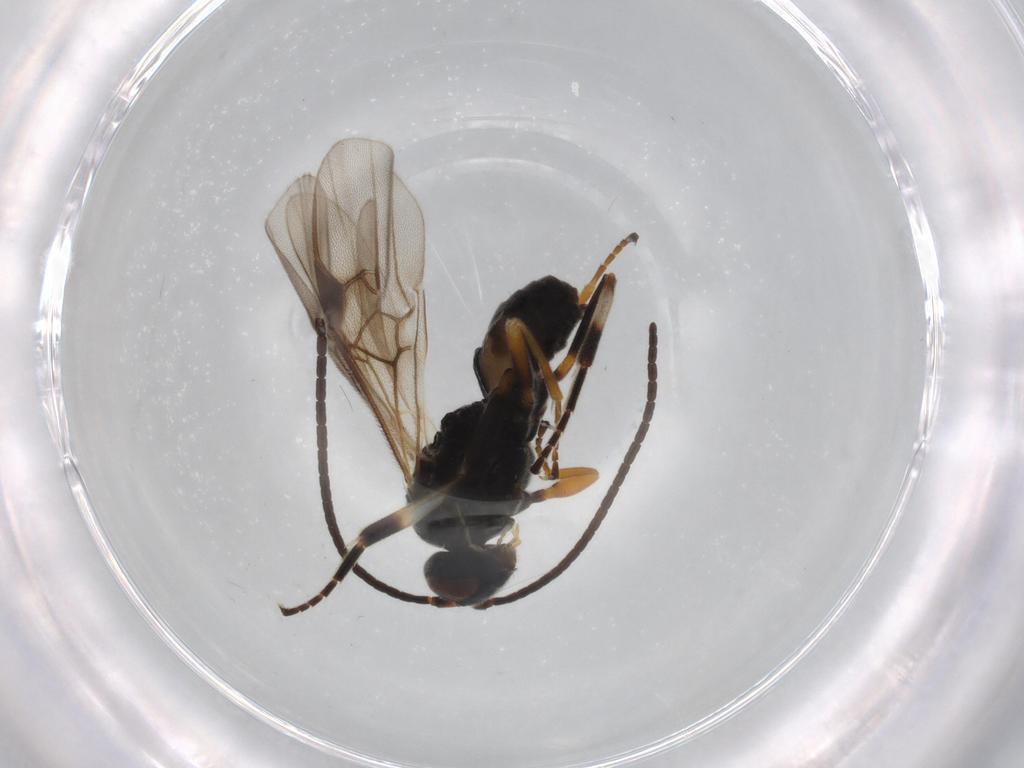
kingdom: Animalia
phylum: Arthropoda
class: Insecta
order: Hymenoptera
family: Braconidae
